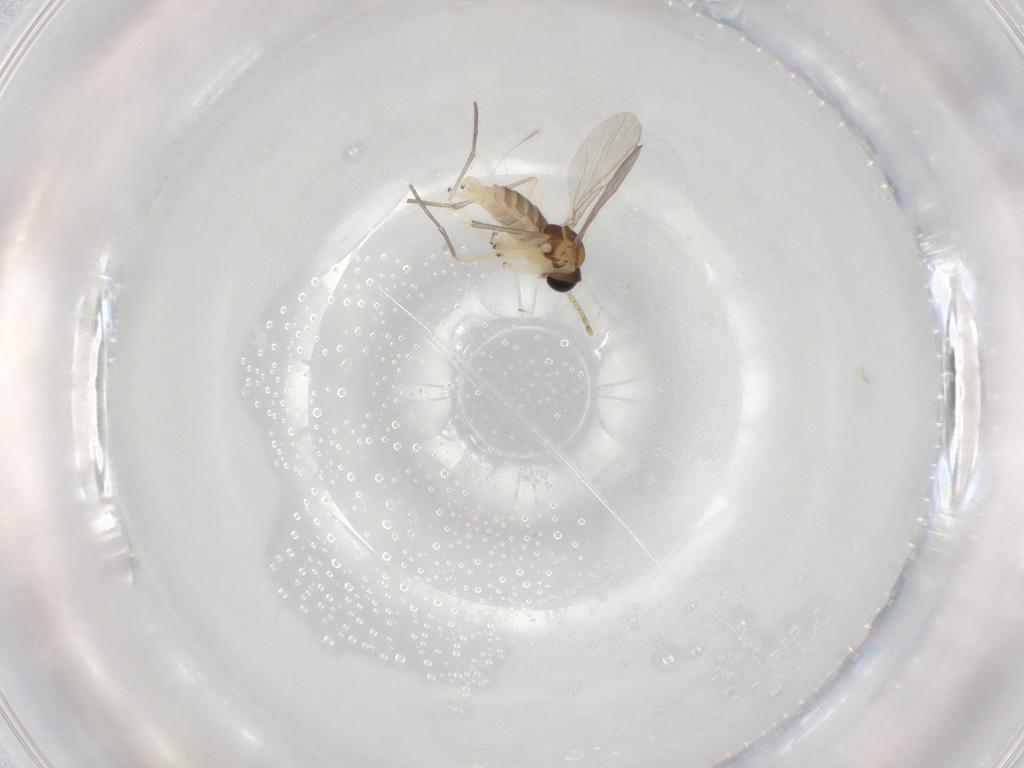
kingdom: Animalia
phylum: Arthropoda
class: Insecta
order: Diptera
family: Sciaridae
